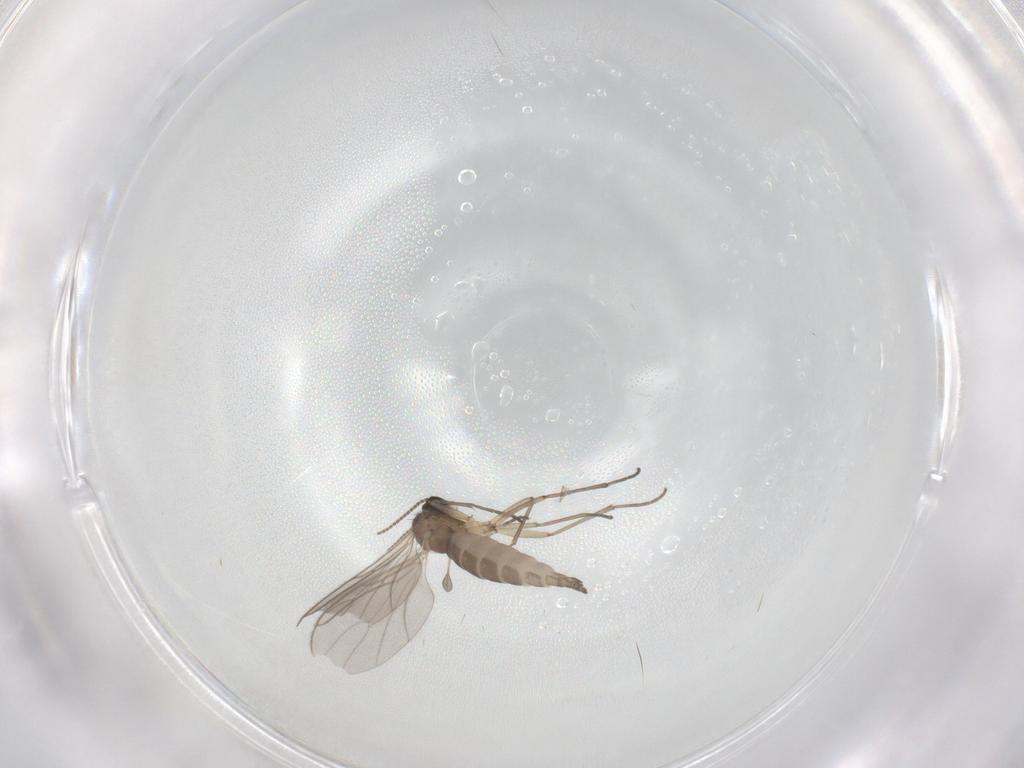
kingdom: Animalia
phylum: Arthropoda
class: Insecta
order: Diptera
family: Sciaridae
